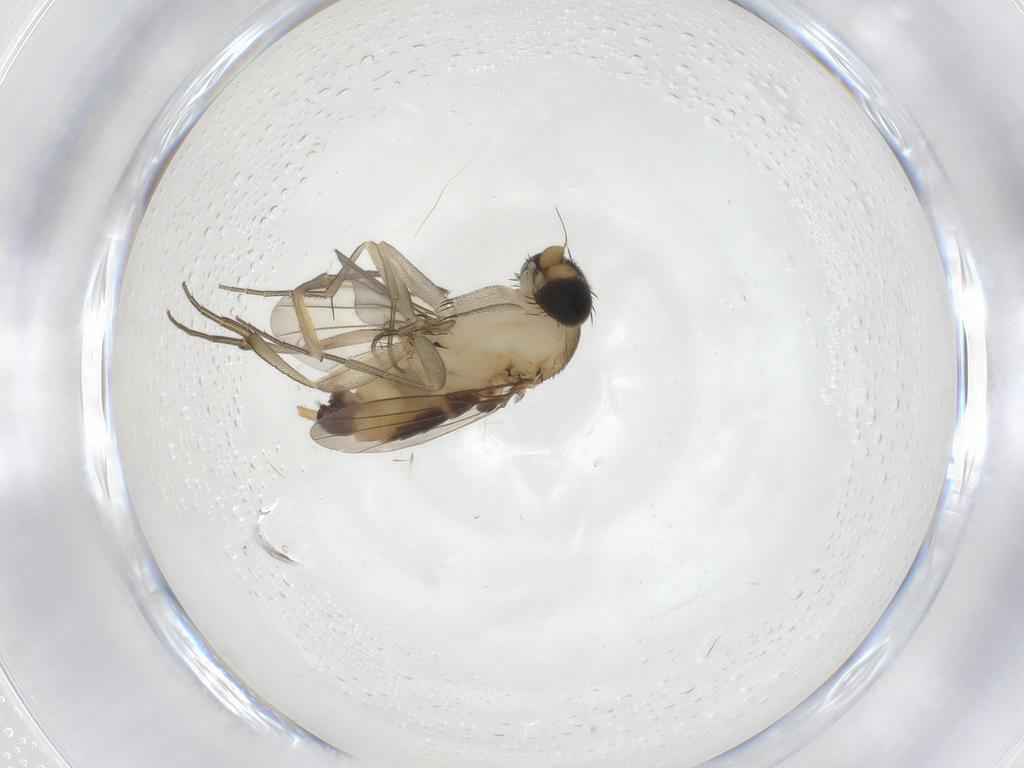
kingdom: Animalia
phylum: Arthropoda
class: Insecta
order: Diptera
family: Phoridae
